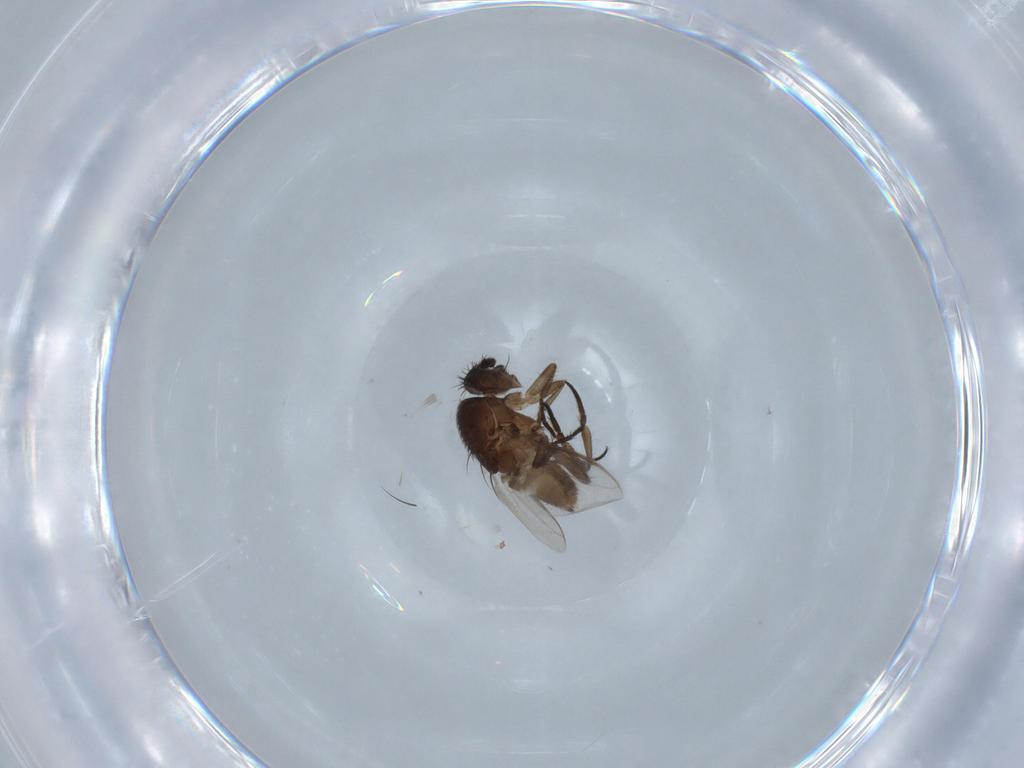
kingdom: Animalia
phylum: Arthropoda
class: Insecta
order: Diptera
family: Sphaeroceridae
